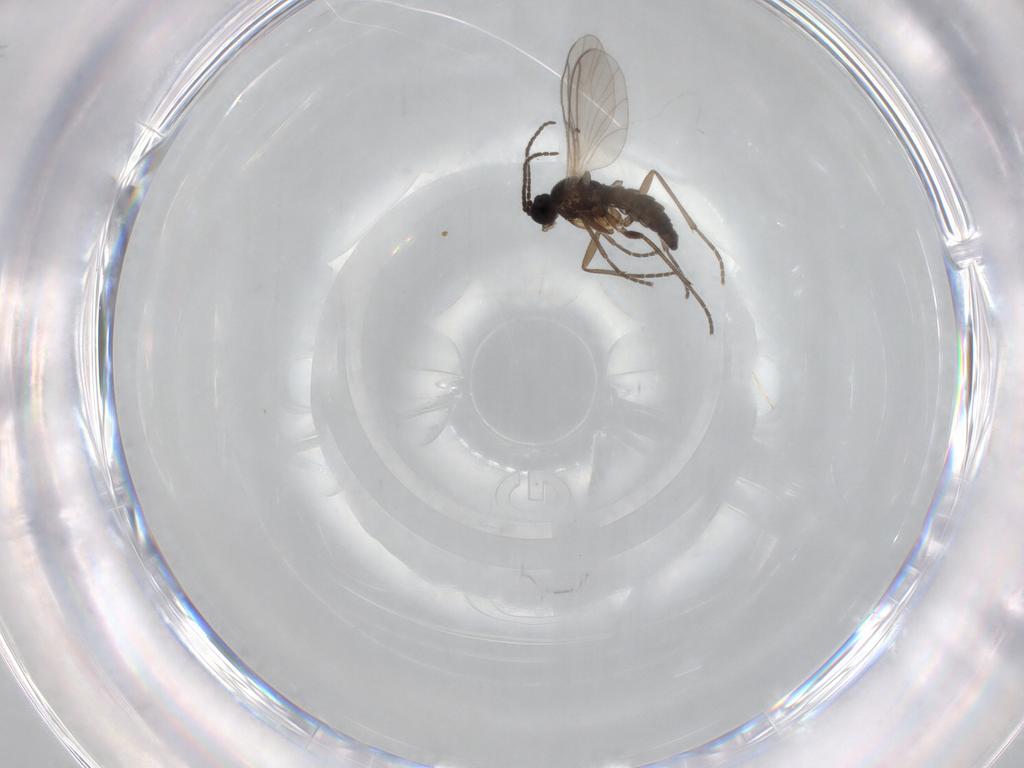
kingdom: Animalia
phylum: Arthropoda
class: Insecta
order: Diptera
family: Sciaridae
